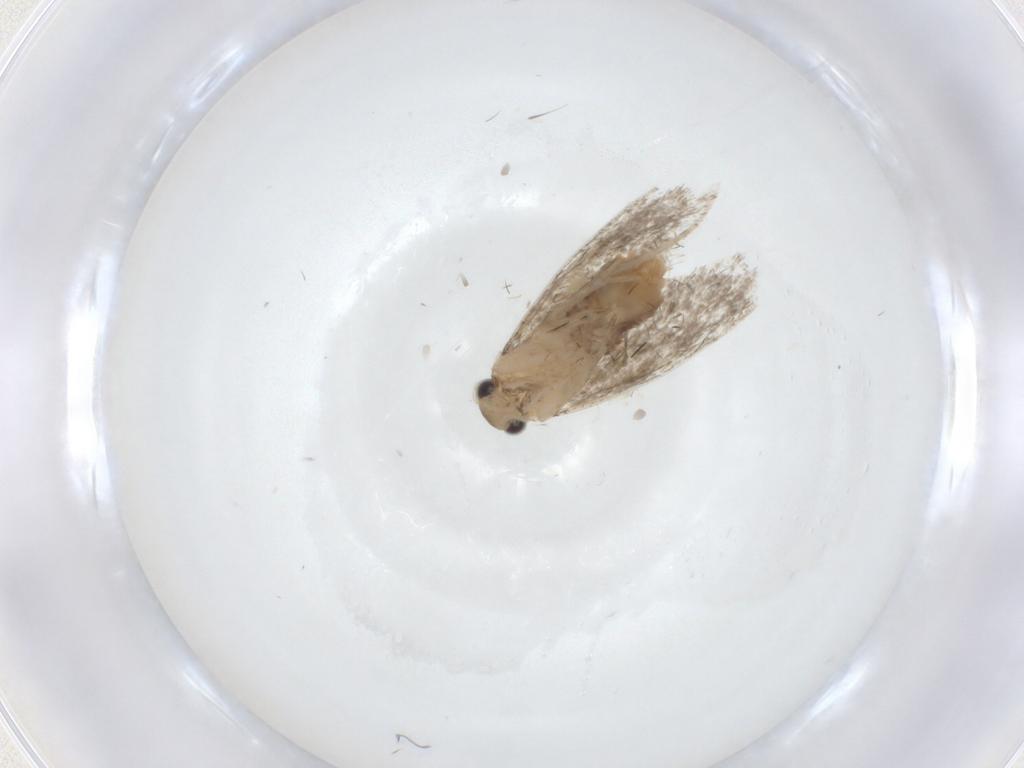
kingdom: Animalia
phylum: Arthropoda
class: Insecta
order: Lepidoptera
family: Tineidae
